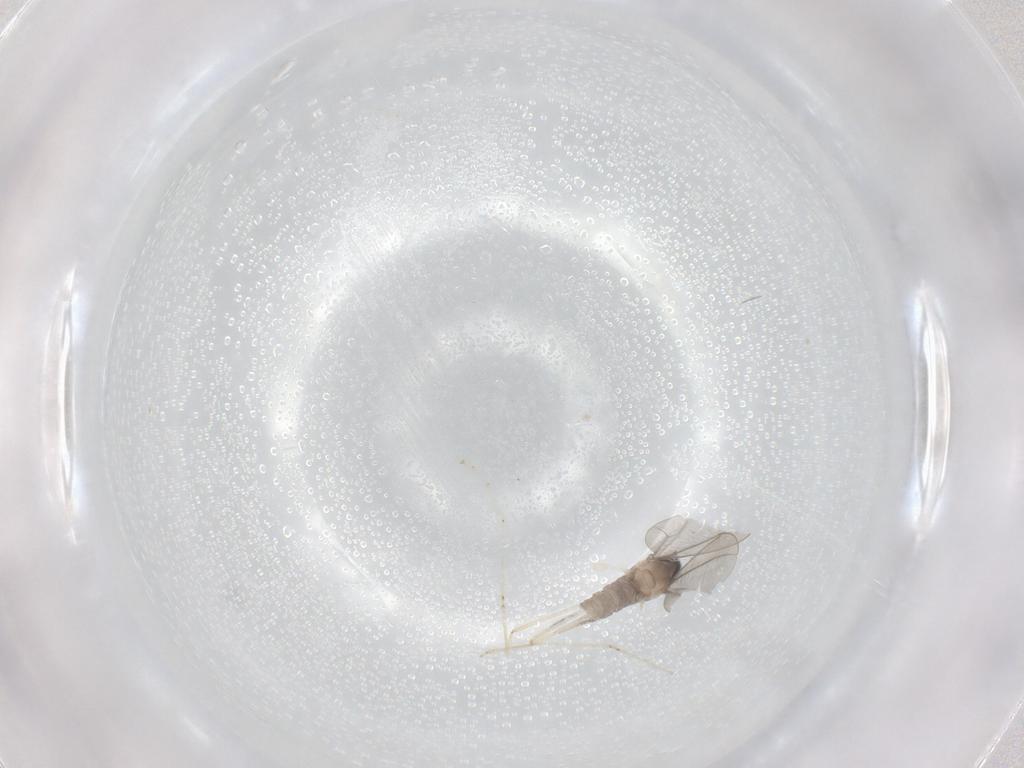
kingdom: Animalia
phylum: Arthropoda
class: Insecta
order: Diptera
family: Cecidomyiidae
